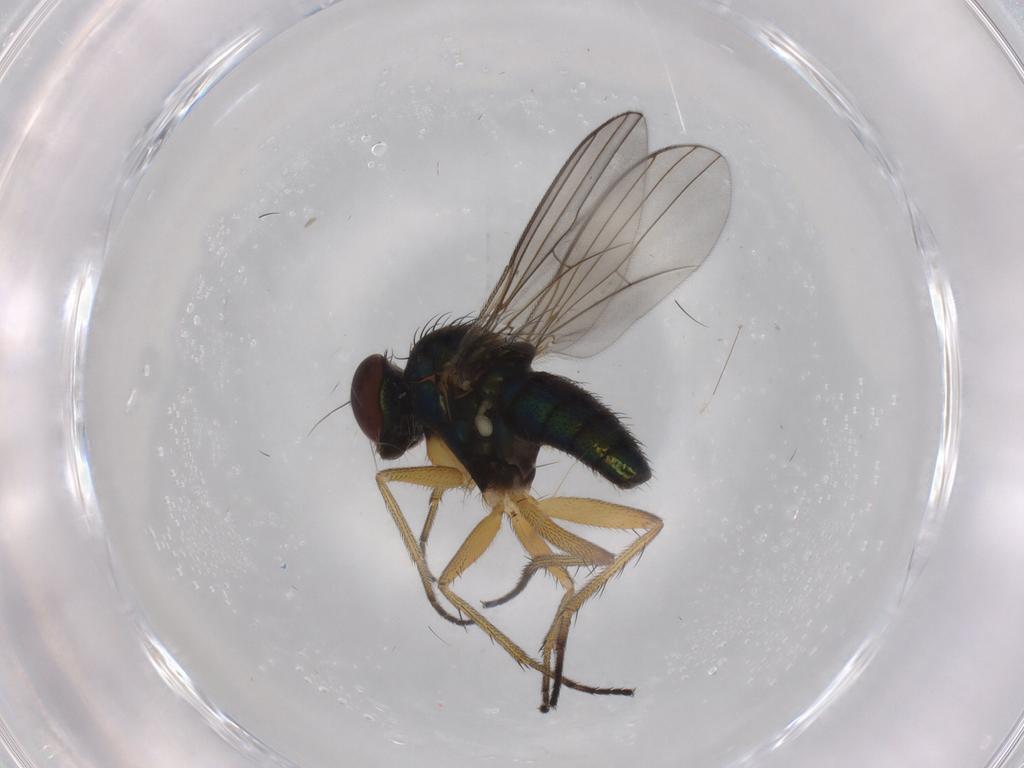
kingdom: Animalia
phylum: Arthropoda
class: Insecta
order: Diptera
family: Dolichopodidae
